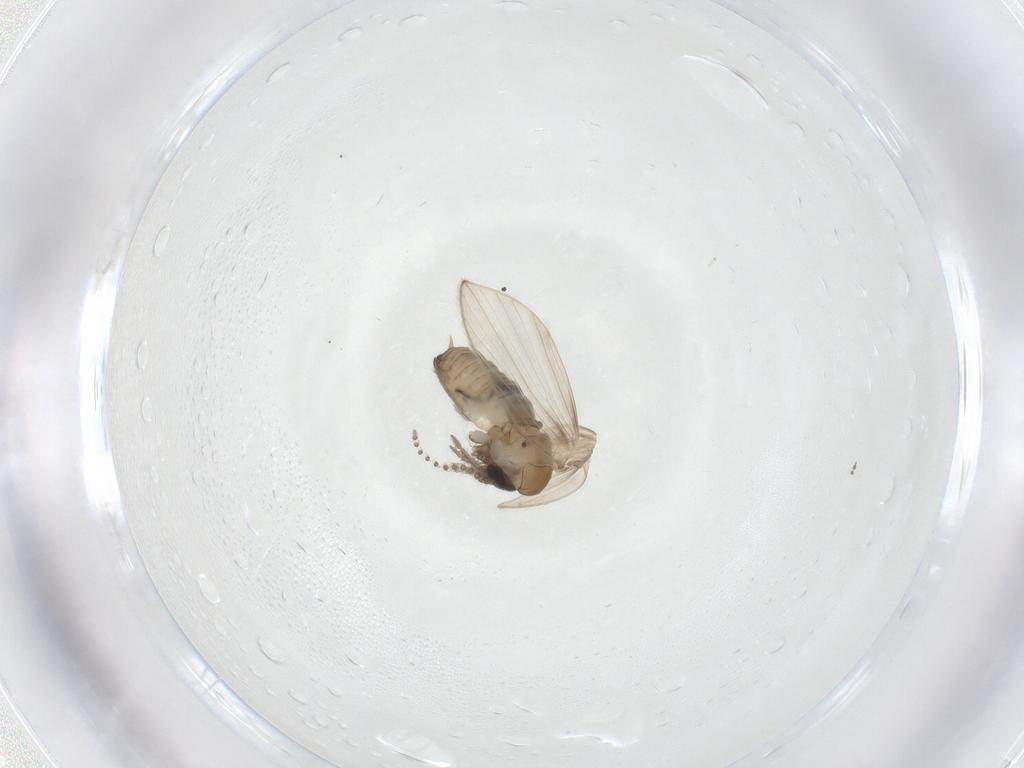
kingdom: Animalia
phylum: Arthropoda
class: Insecta
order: Diptera
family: Psychodidae
